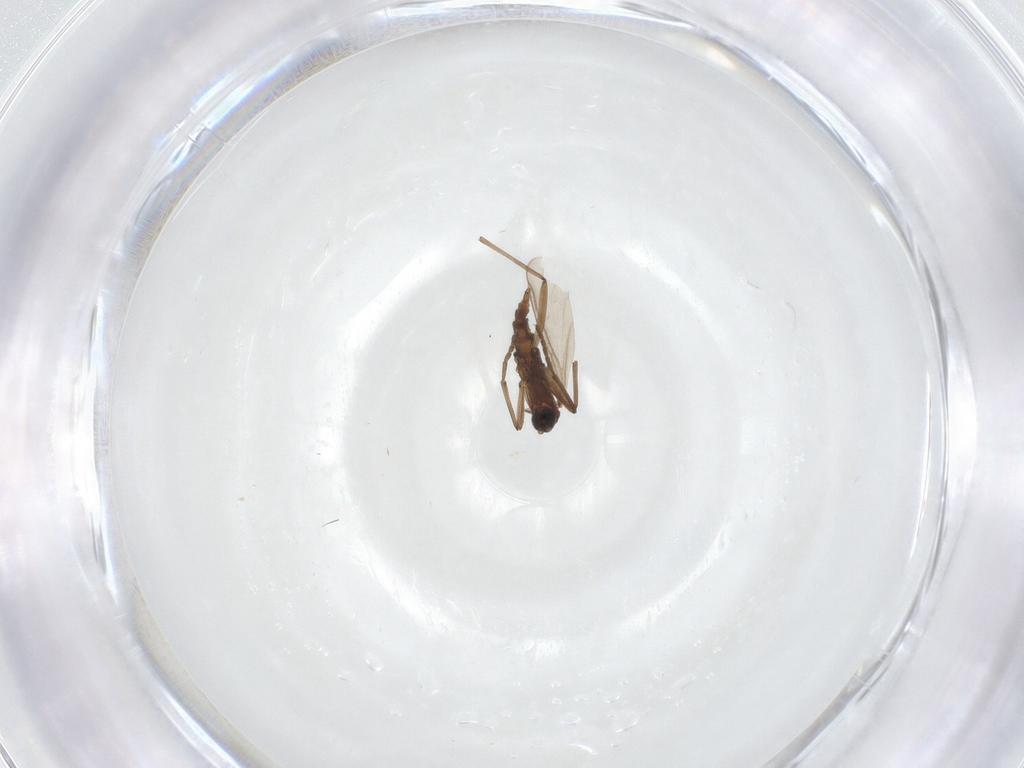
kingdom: Animalia
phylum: Arthropoda
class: Insecta
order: Diptera
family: Sciaridae
